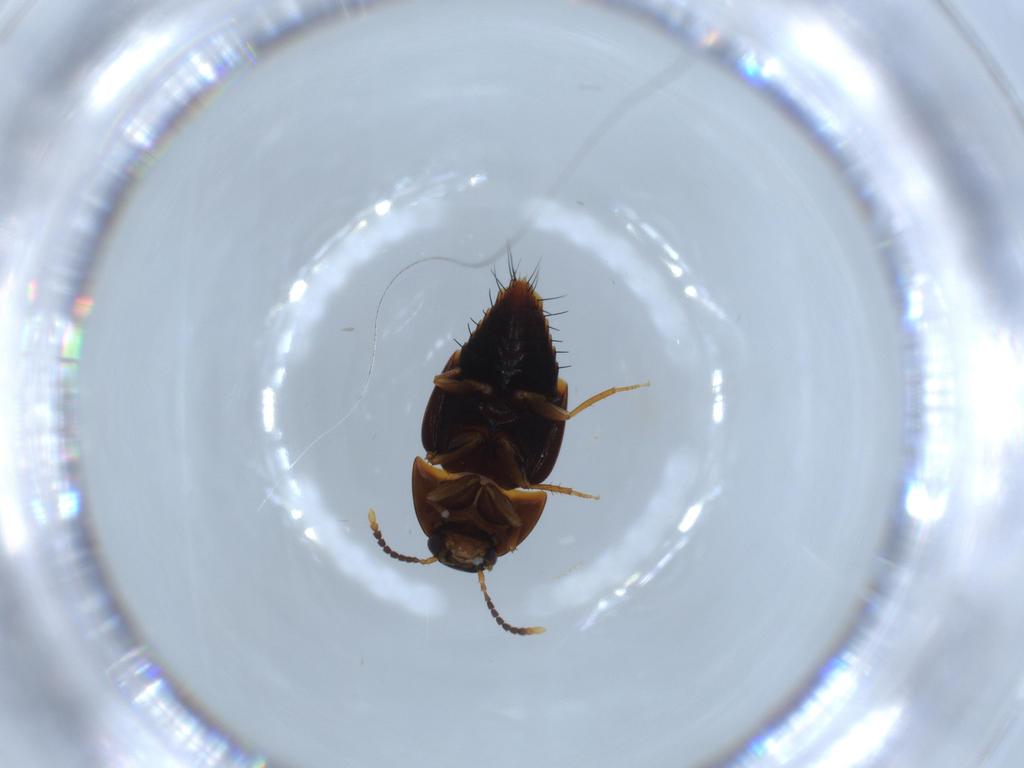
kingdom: Animalia
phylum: Arthropoda
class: Insecta
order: Coleoptera
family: Staphylinidae
